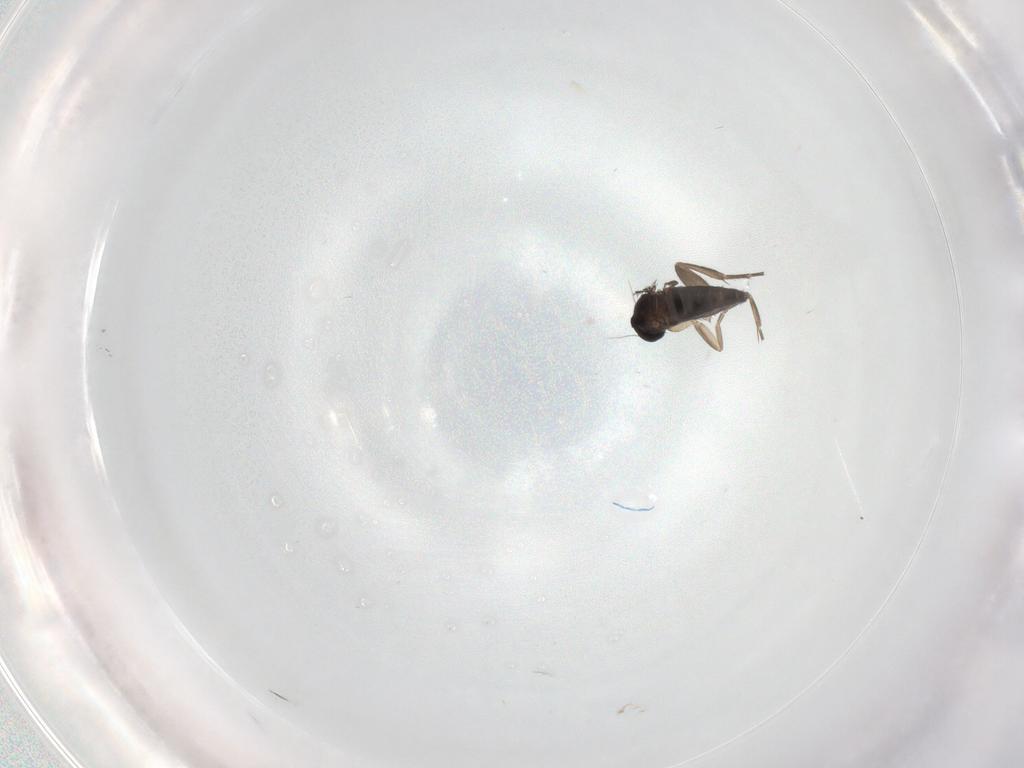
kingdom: Animalia
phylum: Arthropoda
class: Insecta
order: Diptera
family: Phoridae
